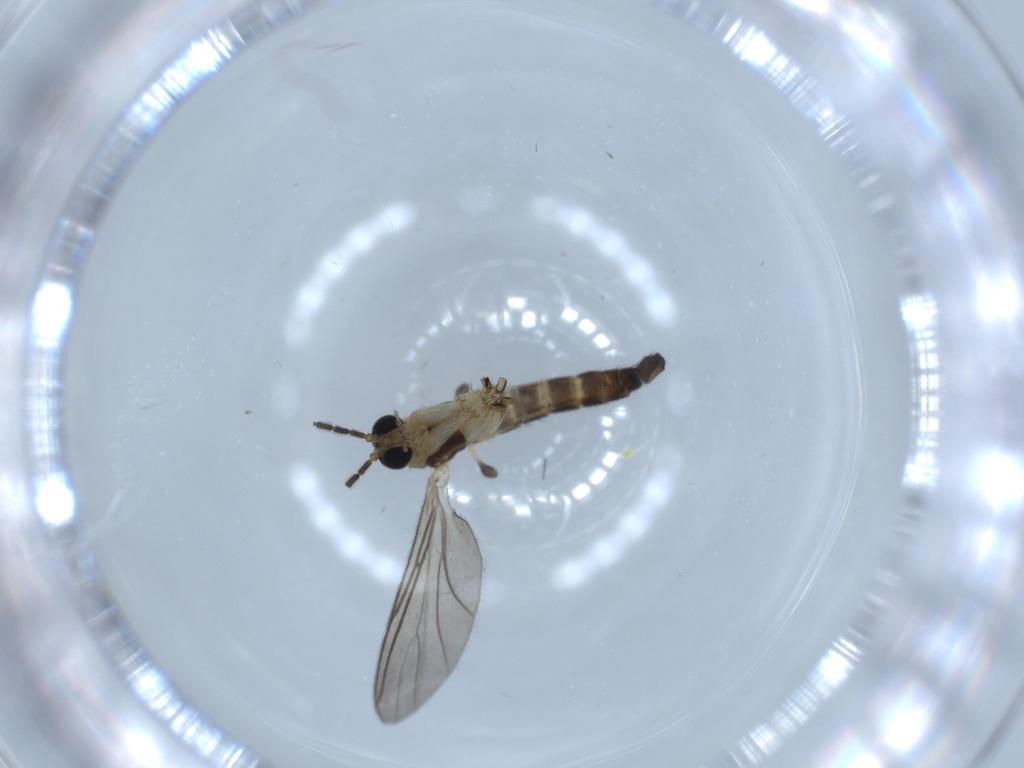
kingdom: Animalia
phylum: Arthropoda
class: Insecta
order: Diptera
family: Sciaridae
